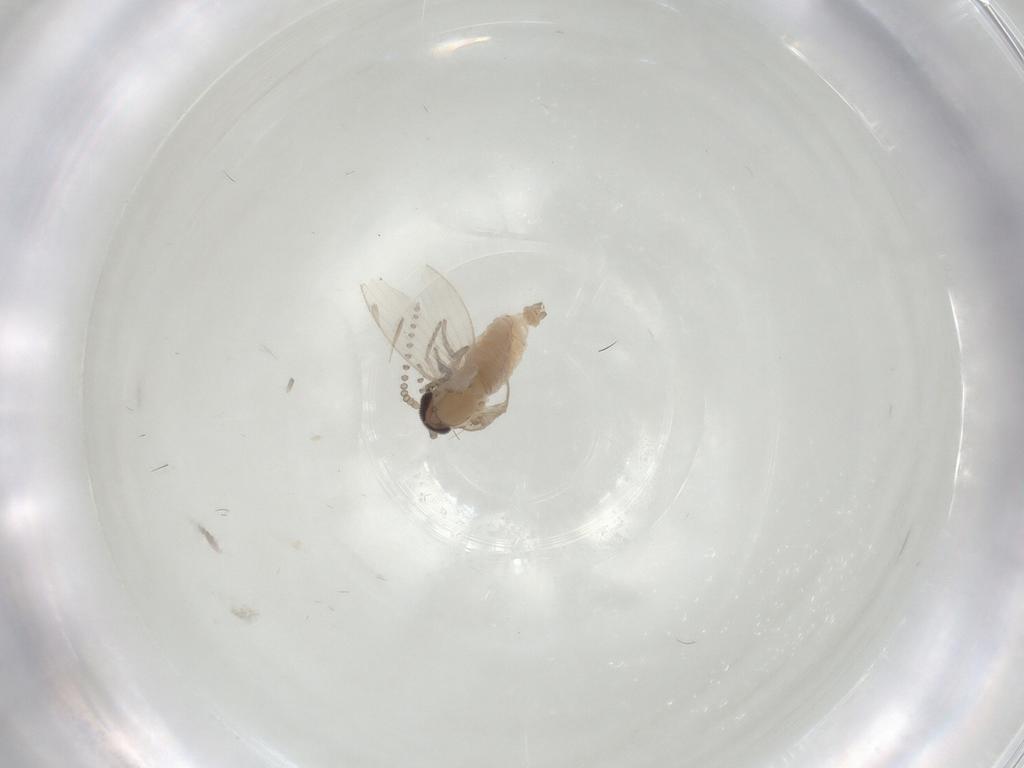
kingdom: Animalia
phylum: Arthropoda
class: Insecta
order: Diptera
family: Psychodidae
